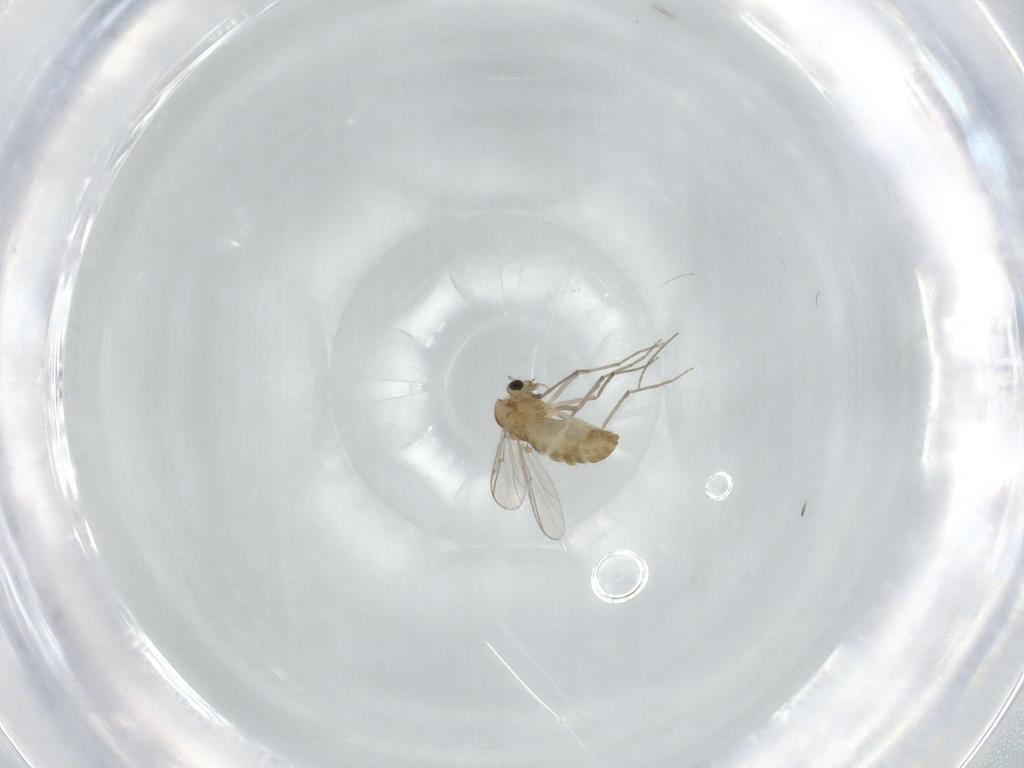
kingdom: Animalia
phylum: Arthropoda
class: Insecta
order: Diptera
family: Chironomidae
